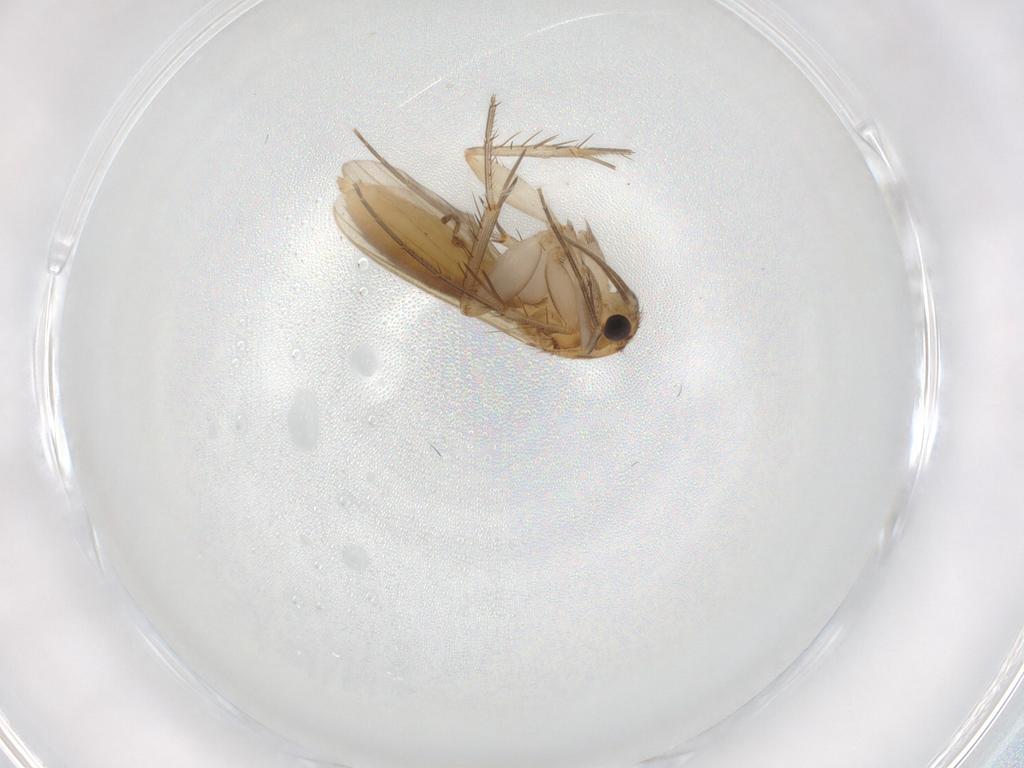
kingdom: Animalia
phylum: Arthropoda
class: Insecta
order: Diptera
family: Mycetophilidae
